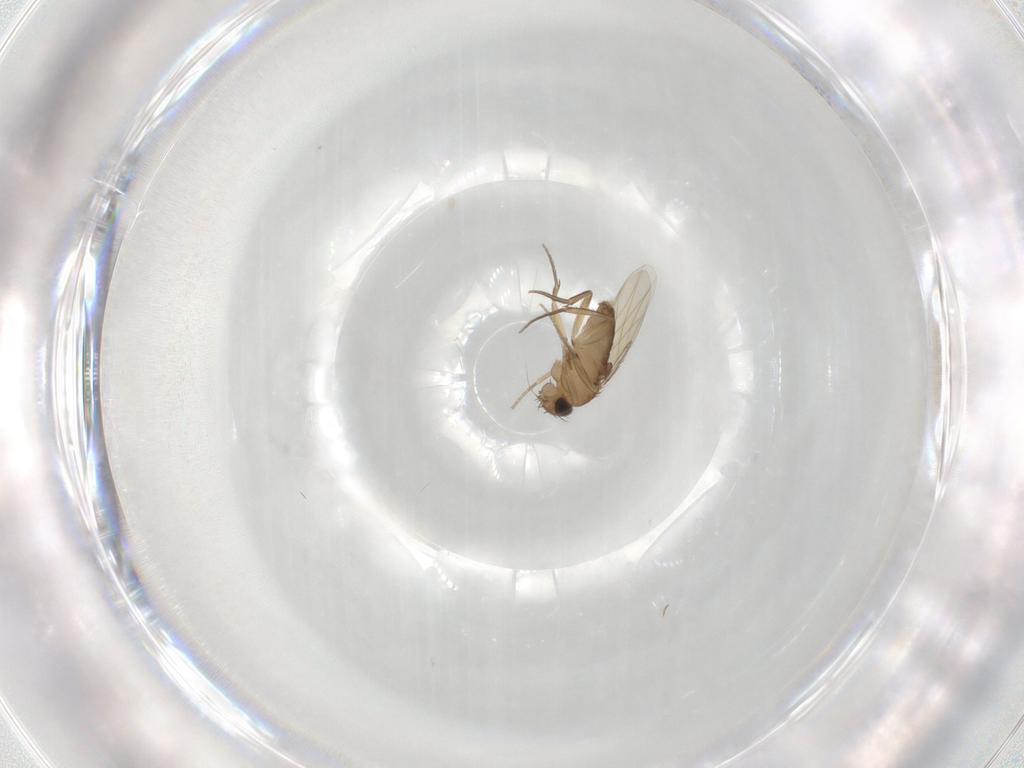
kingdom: Animalia
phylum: Arthropoda
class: Insecta
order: Diptera
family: Phoridae
